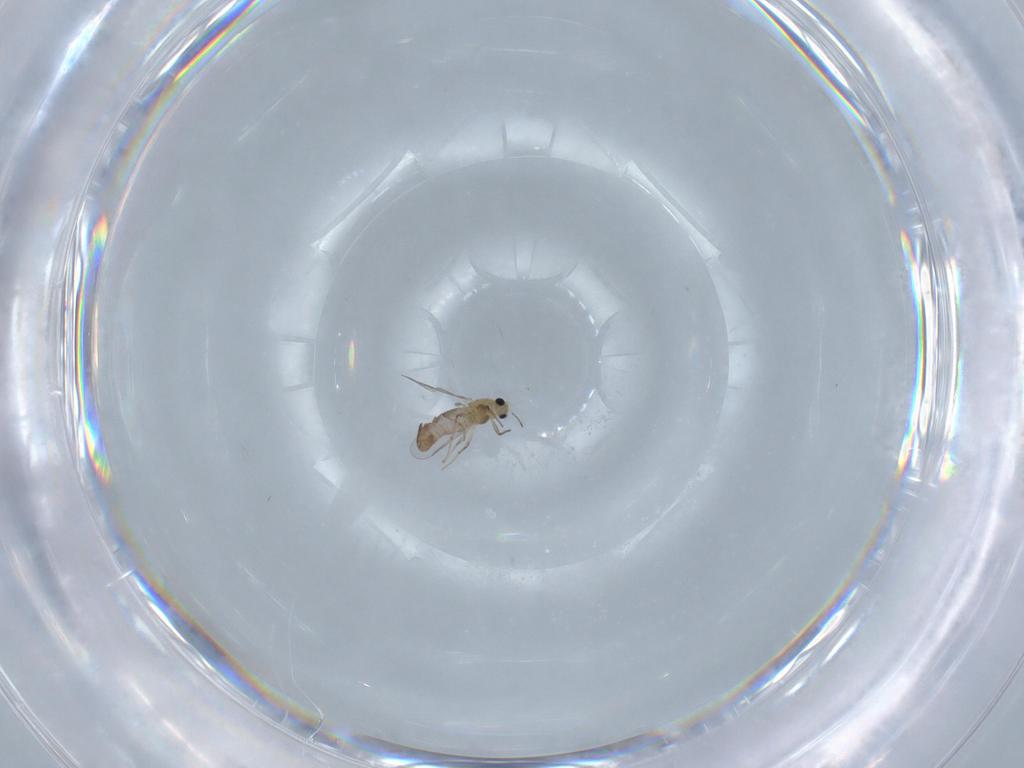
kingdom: Animalia
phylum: Arthropoda
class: Insecta
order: Diptera
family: Chironomidae
